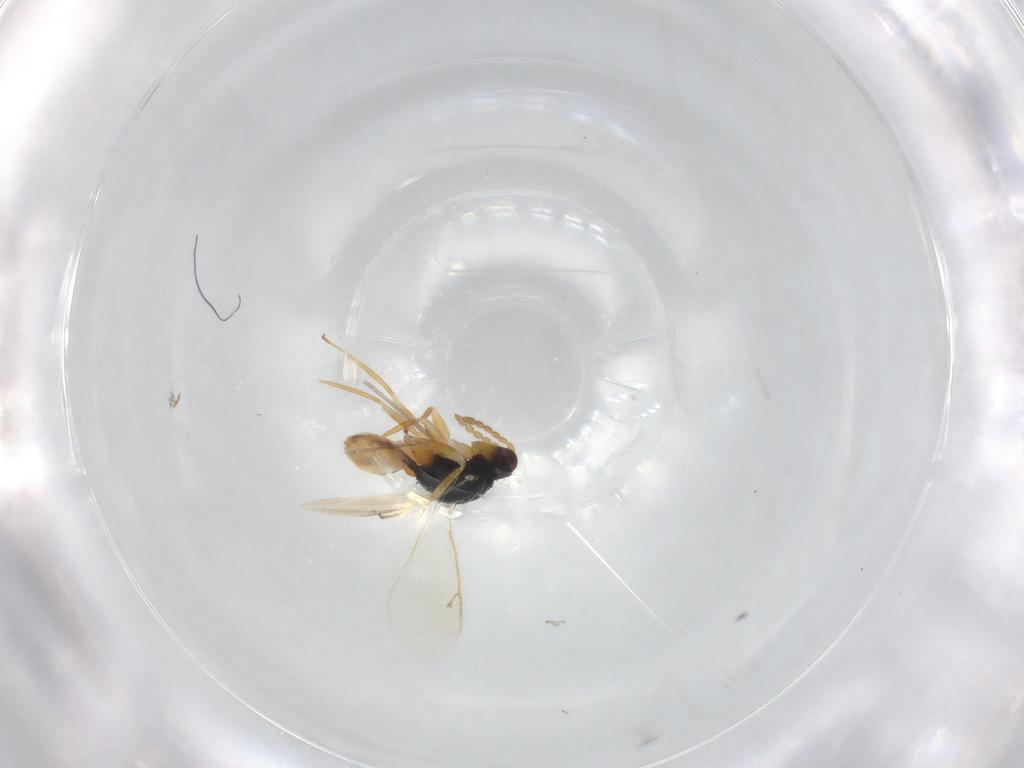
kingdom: Animalia
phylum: Arthropoda
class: Insecta
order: Hymenoptera
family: Eulophidae
